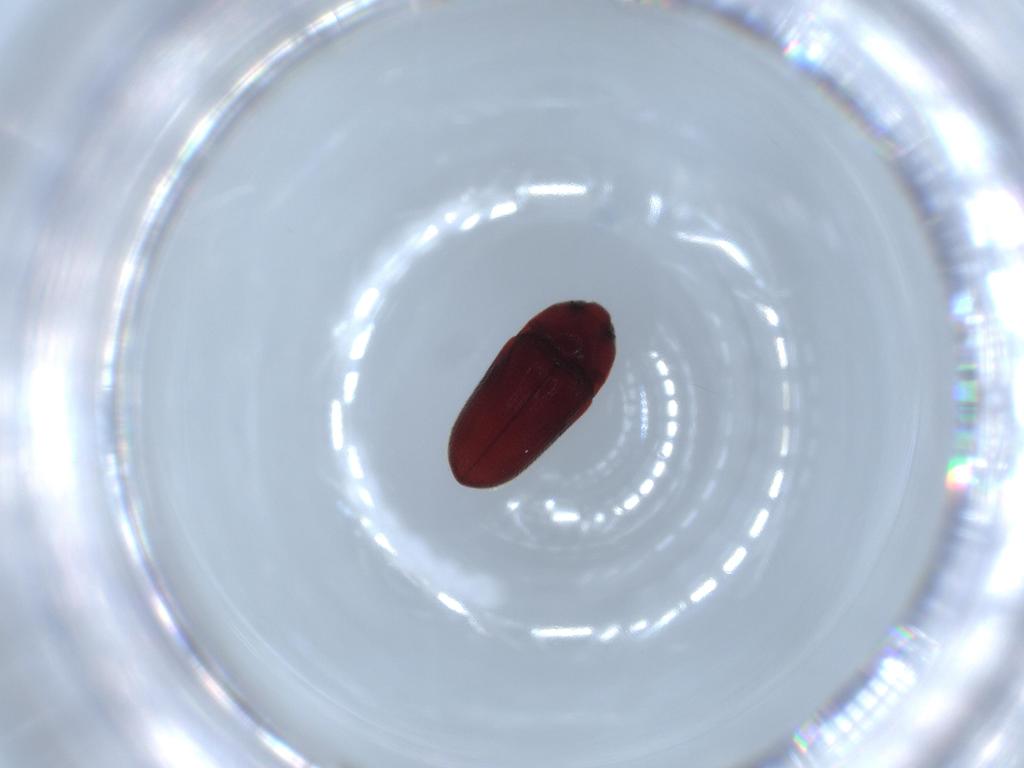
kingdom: Animalia
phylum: Arthropoda
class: Insecta
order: Coleoptera
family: Throscidae
